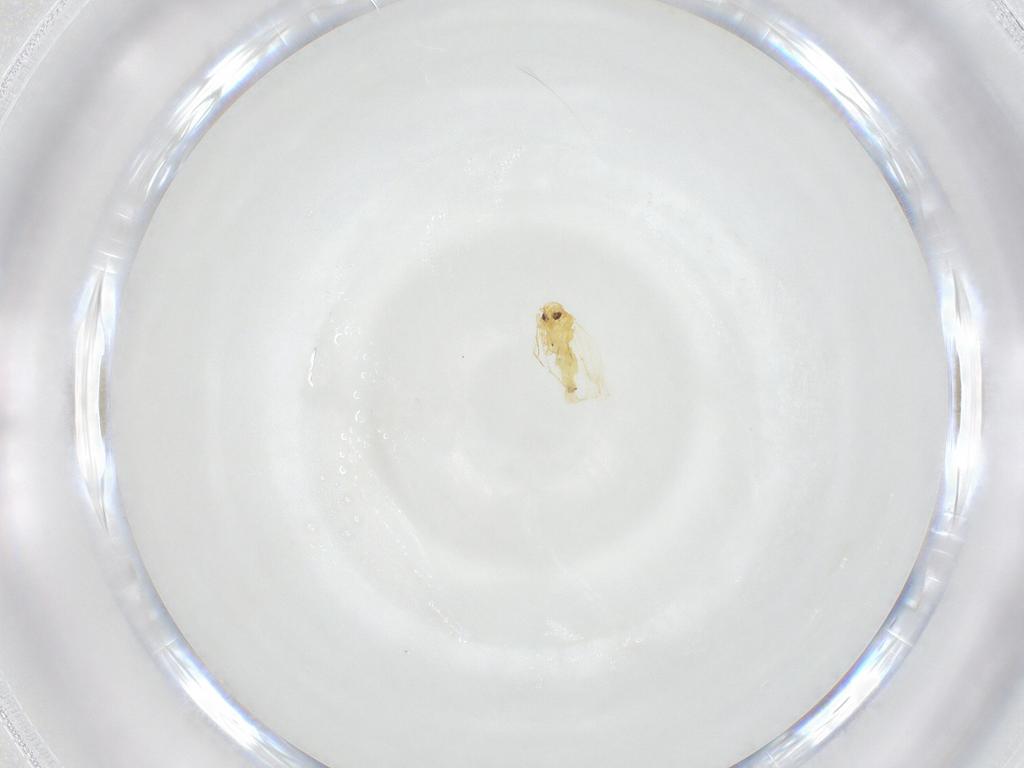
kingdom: Animalia
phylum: Arthropoda
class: Insecta
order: Hemiptera
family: Aleyrodidae
